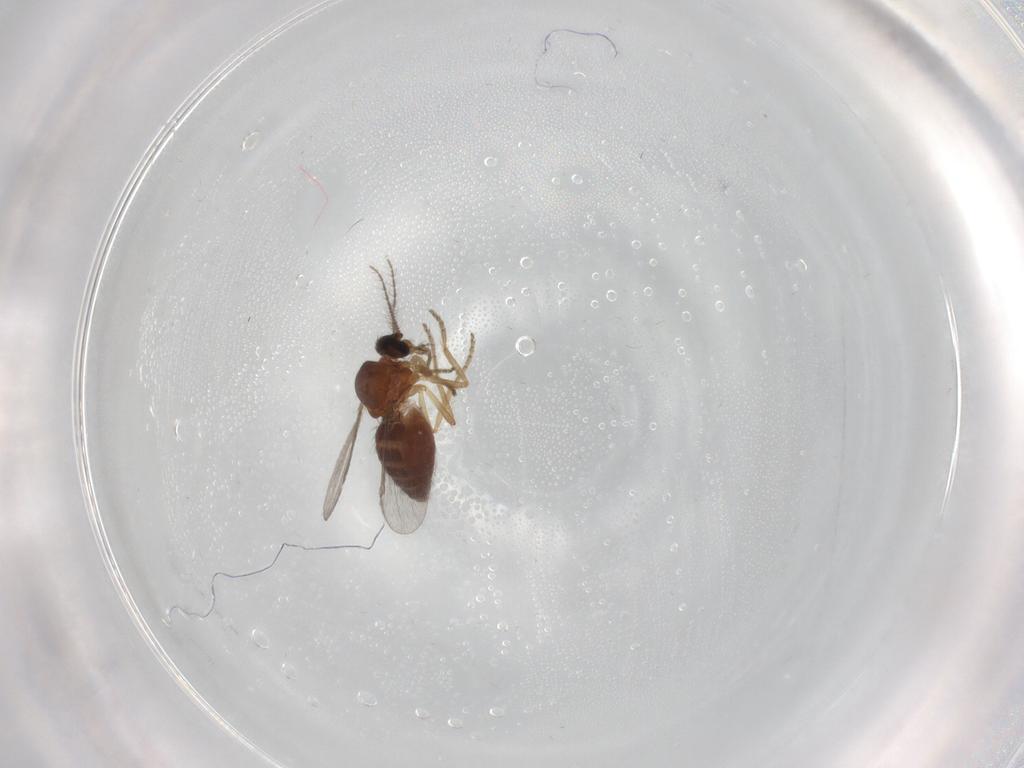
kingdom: Animalia
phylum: Arthropoda
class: Insecta
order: Diptera
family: Ceratopogonidae
